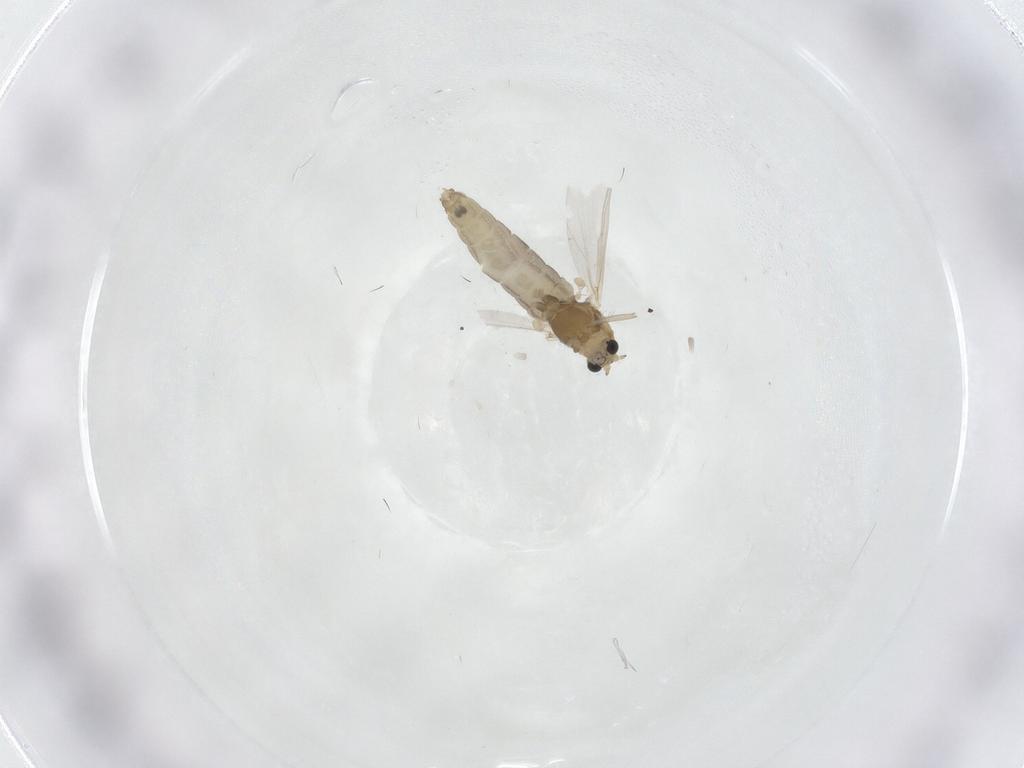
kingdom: Animalia
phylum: Arthropoda
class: Insecta
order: Diptera
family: Chironomidae
